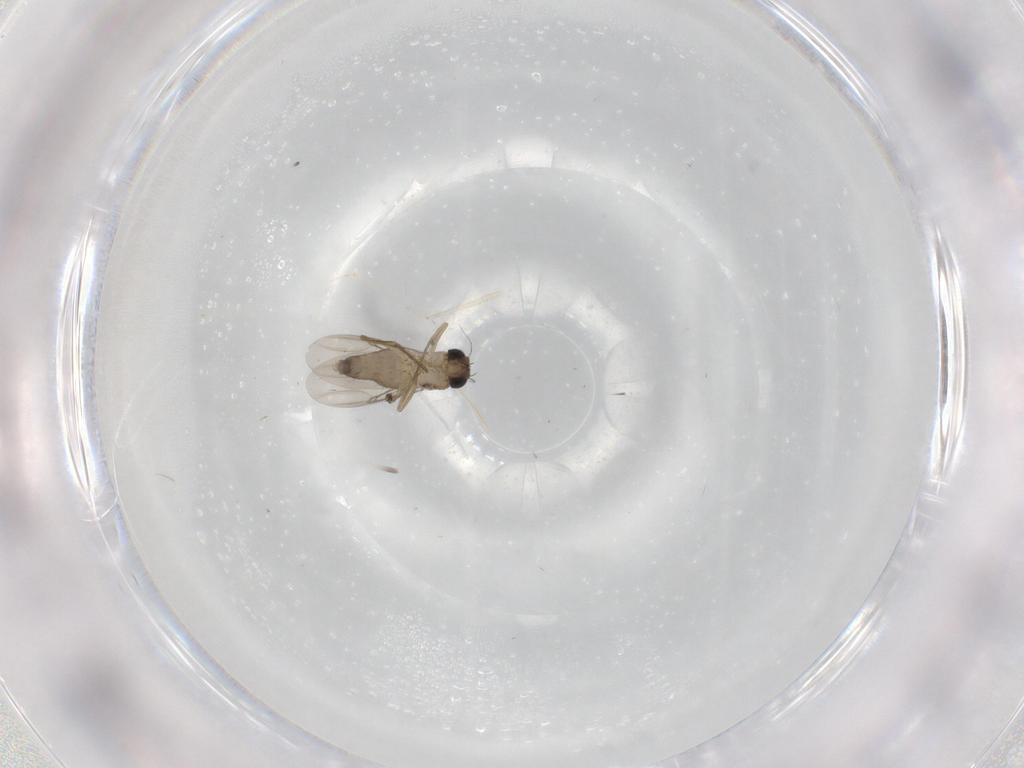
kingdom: Animalia
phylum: Arthropoda
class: Insecta
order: Diptera
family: Phoridae
